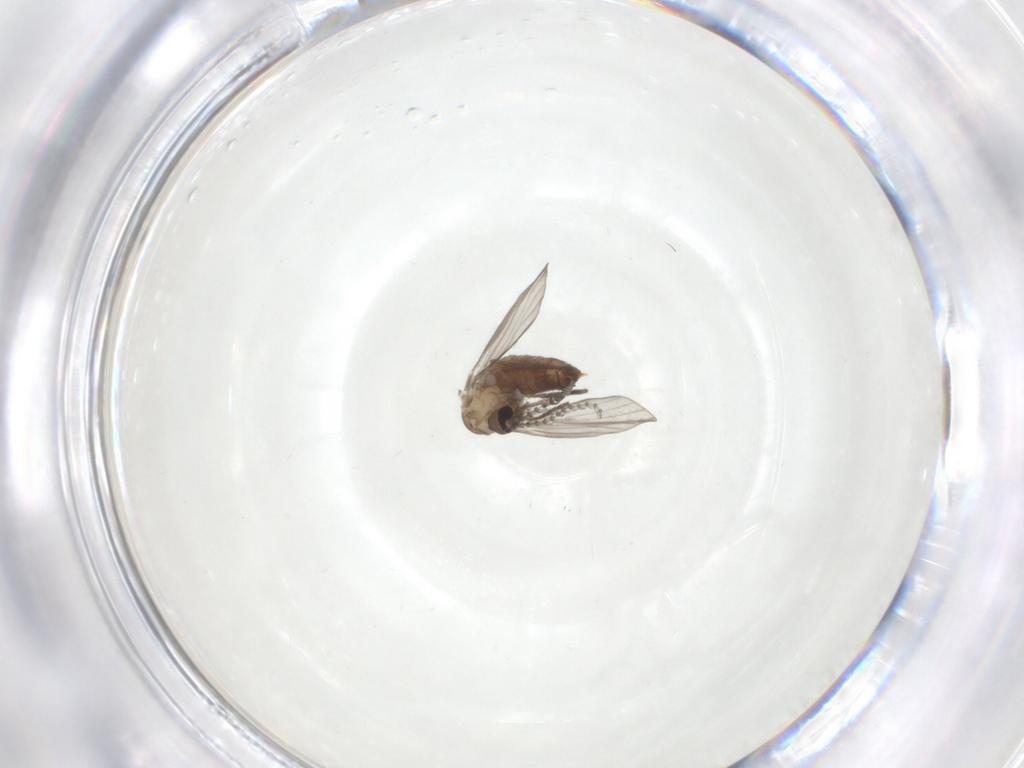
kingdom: Animalia
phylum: Arthropoda
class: Insecta
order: Diptera
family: Psychodidae
